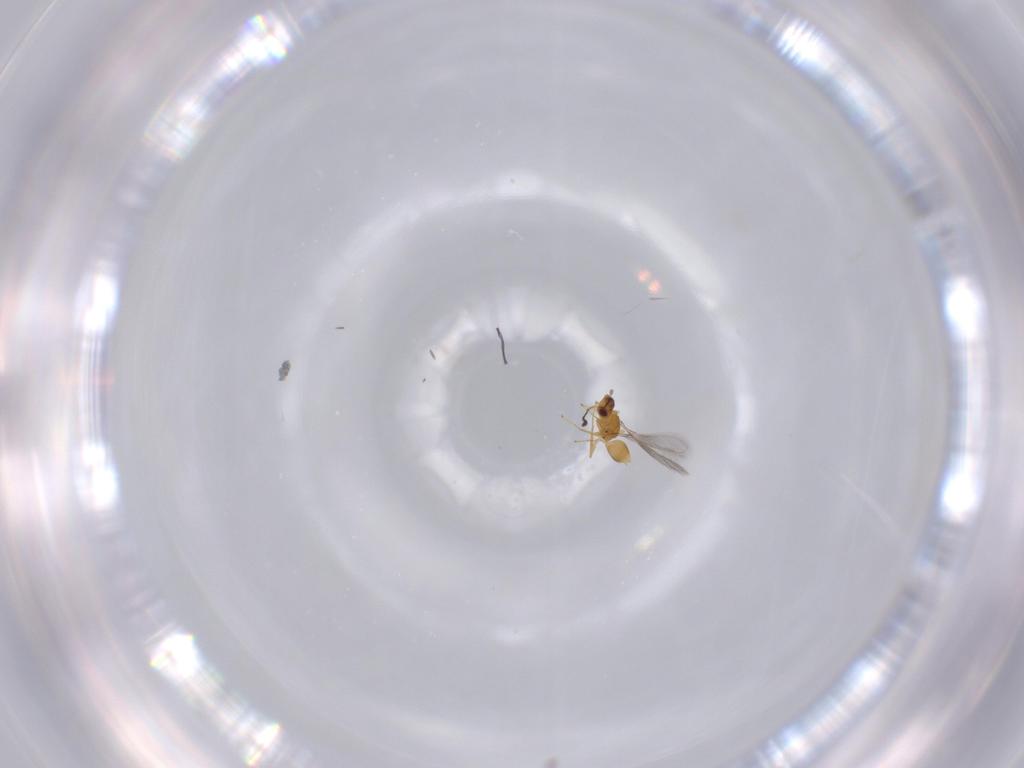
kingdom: Animalia
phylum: Arthropoda
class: Insecta
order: Hymenoptera
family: Mymaridae
